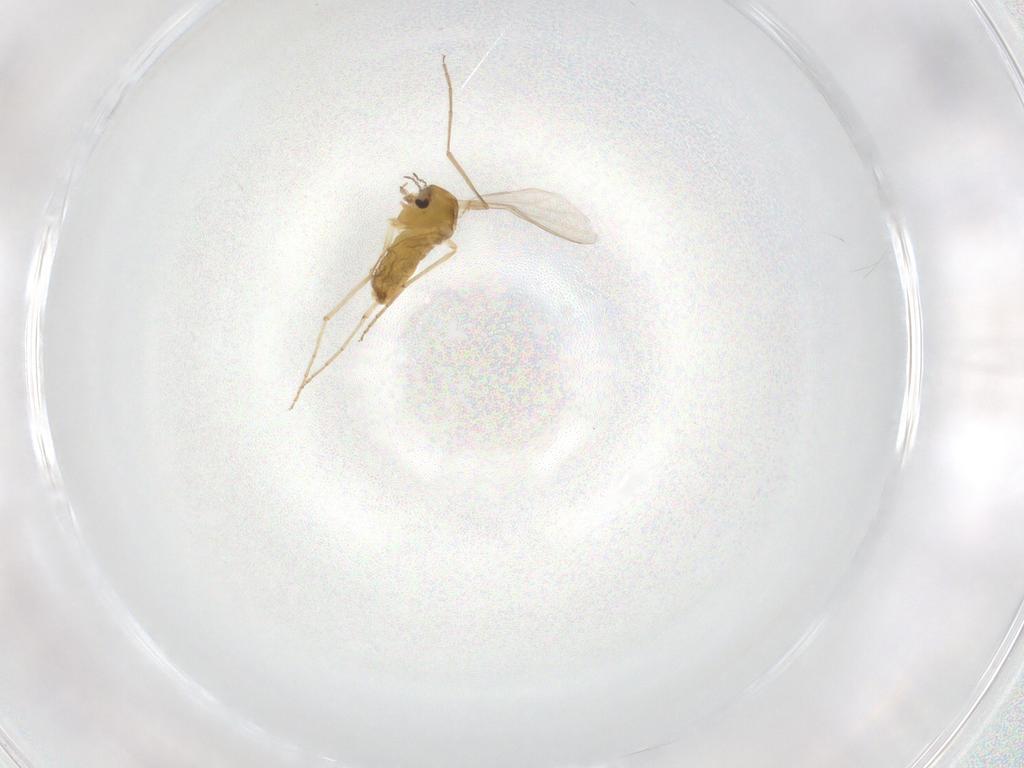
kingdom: Animalia
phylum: Arthropoda
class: Insecta
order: Diptera
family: Chironomidae
